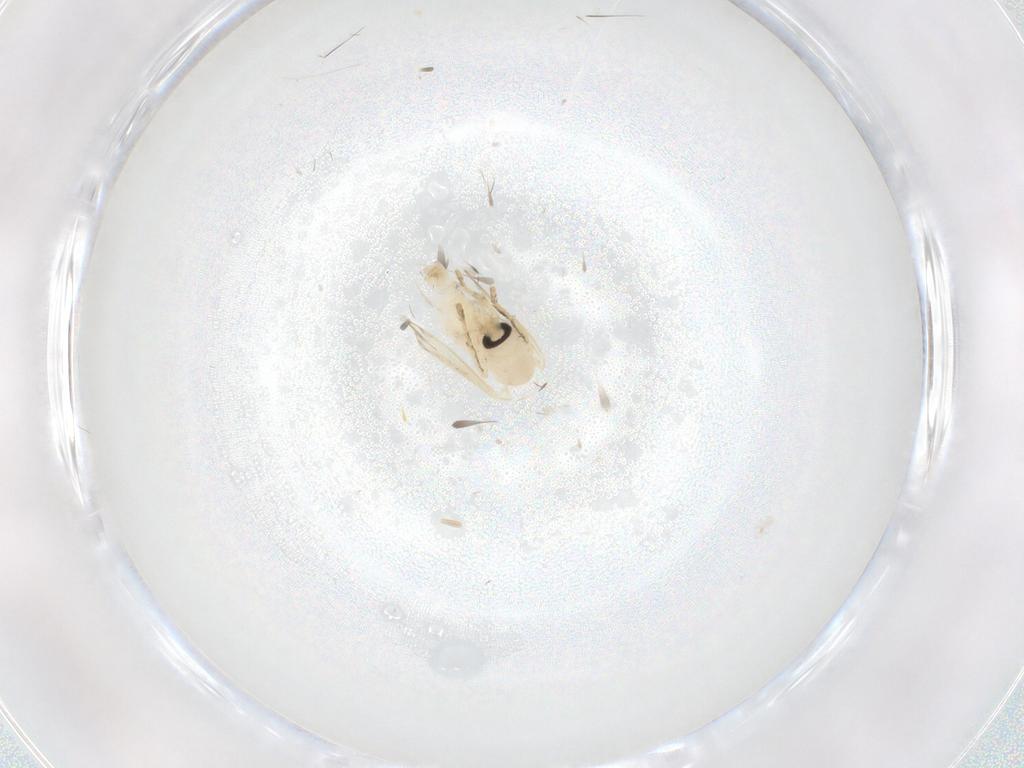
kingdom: Animalia
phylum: Arthropoda
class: Insecta
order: Diptera
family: Psychodidae
